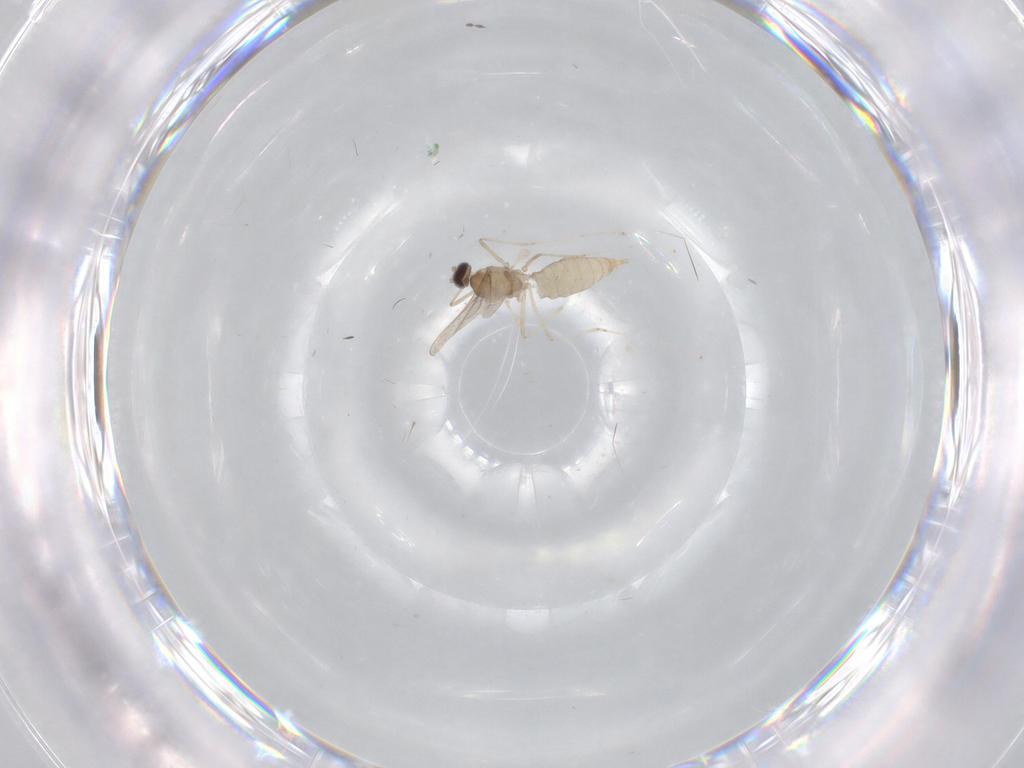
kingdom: Animalia
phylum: Arthropoda
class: Insecta
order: Diptera
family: Cecidomyiidae
